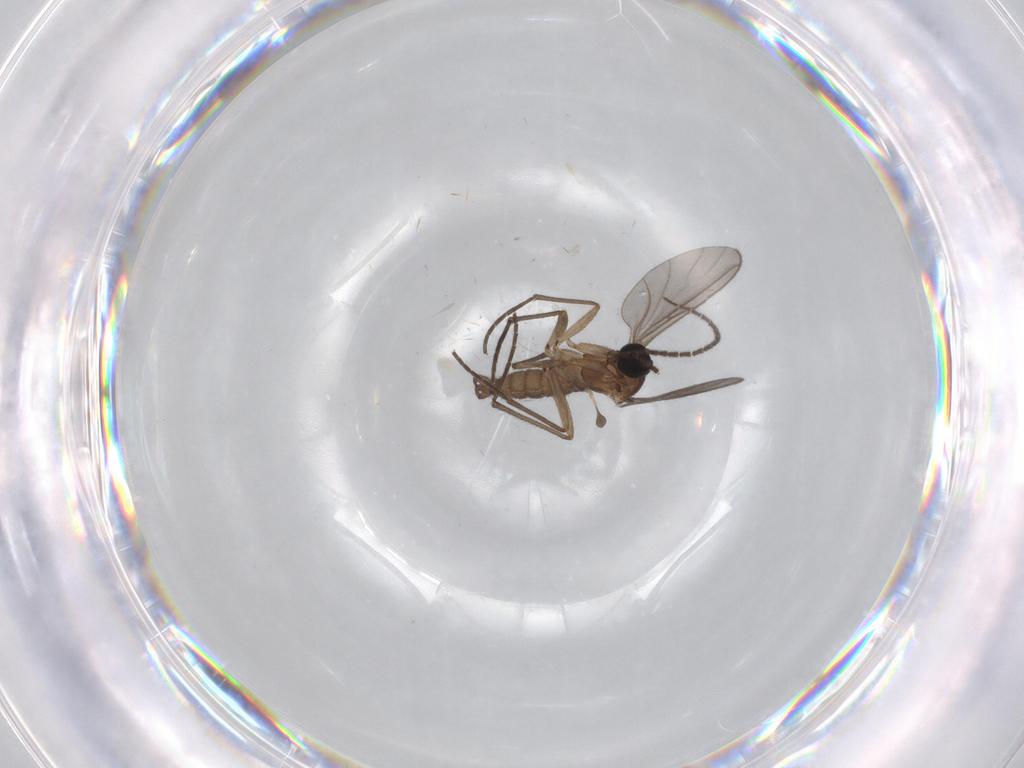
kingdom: Animalia
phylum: Arthropoda
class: Insecta
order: Diptera
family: Sciaridae
